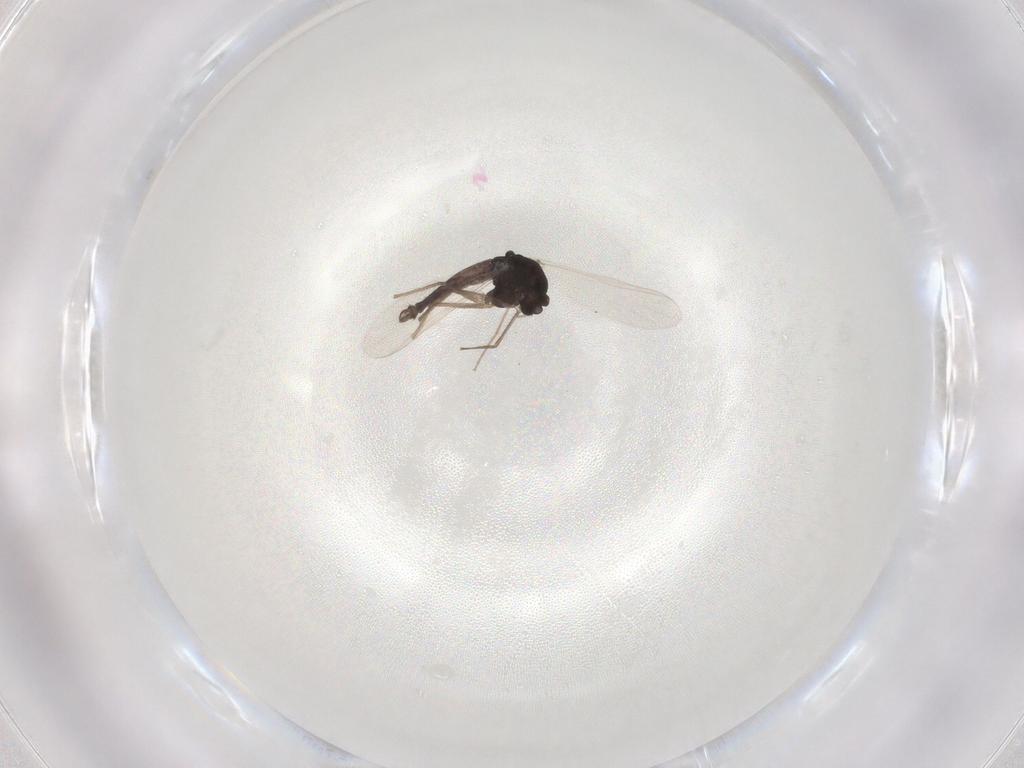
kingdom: Animalia
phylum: Arthropoda
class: Insecta
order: Diptera
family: Chironomidae
